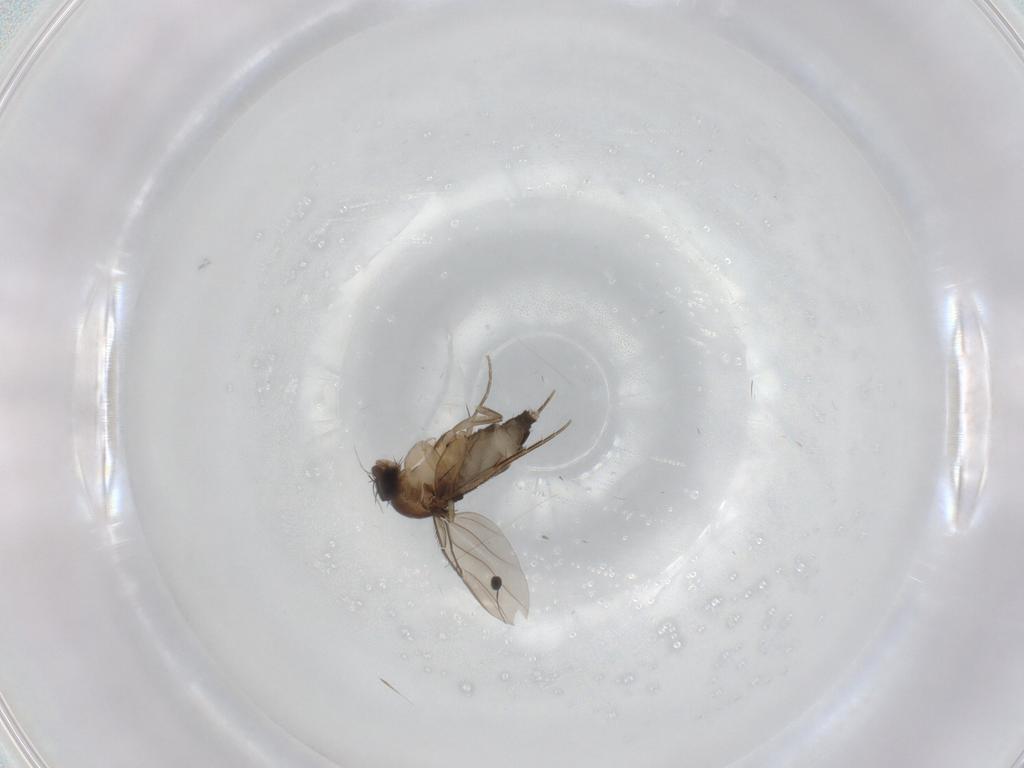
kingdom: Animalia
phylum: Arthropoda
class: Insecta
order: Diptera
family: Phoridae
